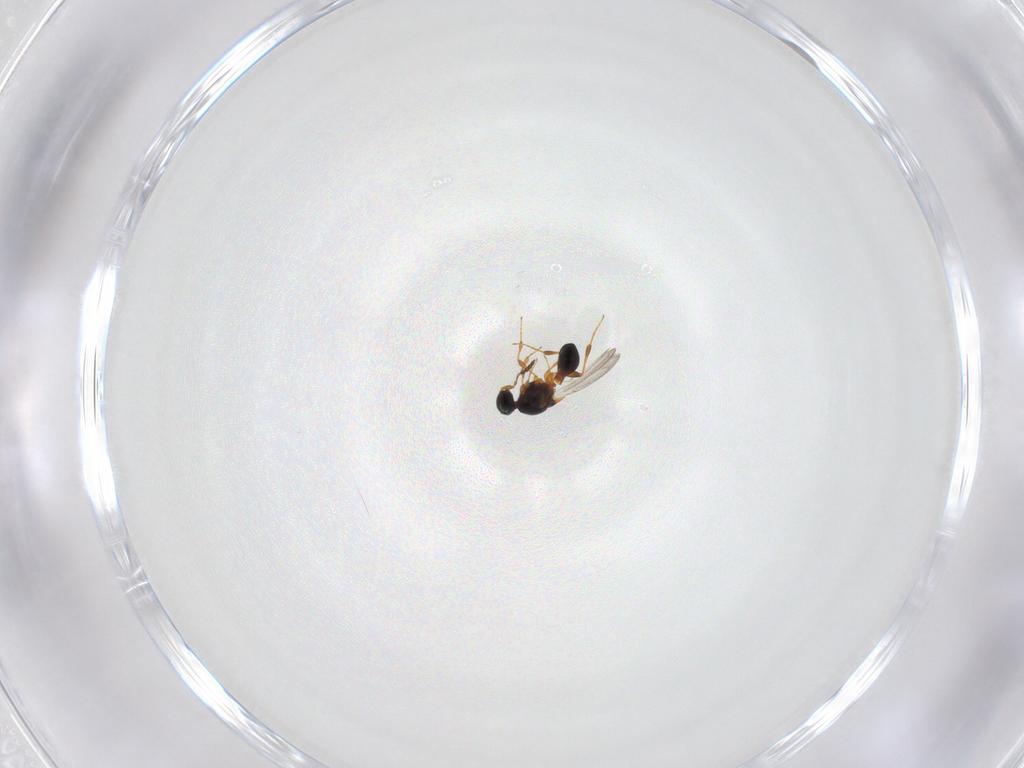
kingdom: Animalia
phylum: Arthropoda
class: Insecta
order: Hymenoptera
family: Platygastridae
